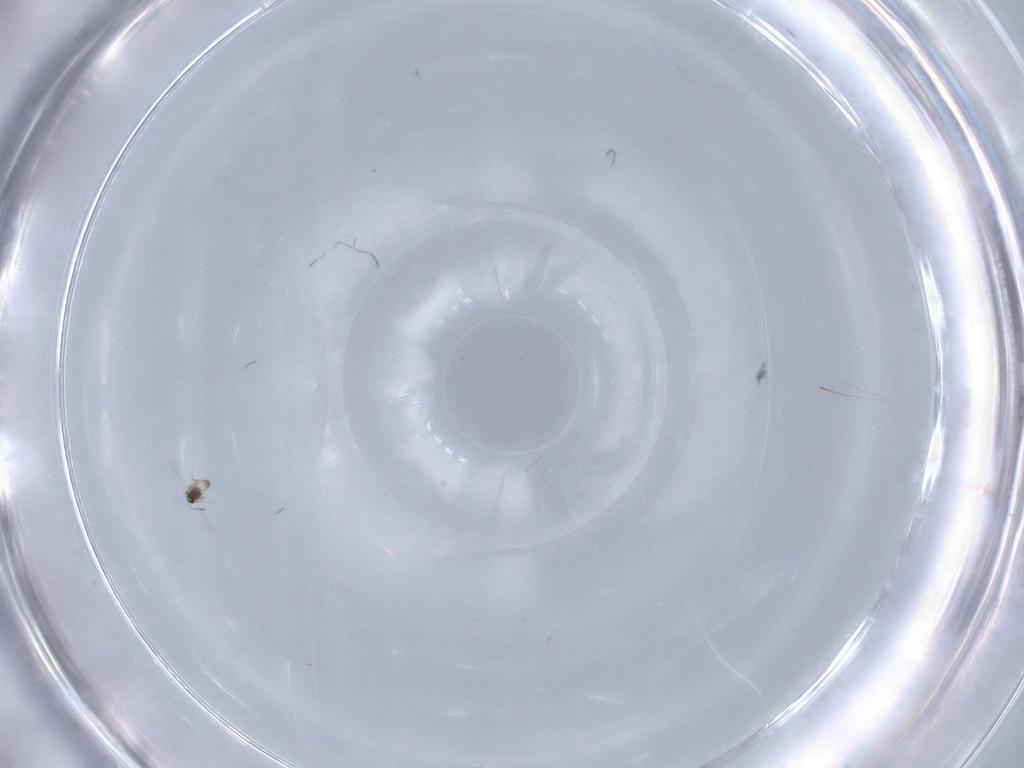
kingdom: Animalia
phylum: Arthropoda
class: Insecta
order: Hymenoptera
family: Mymaridae
